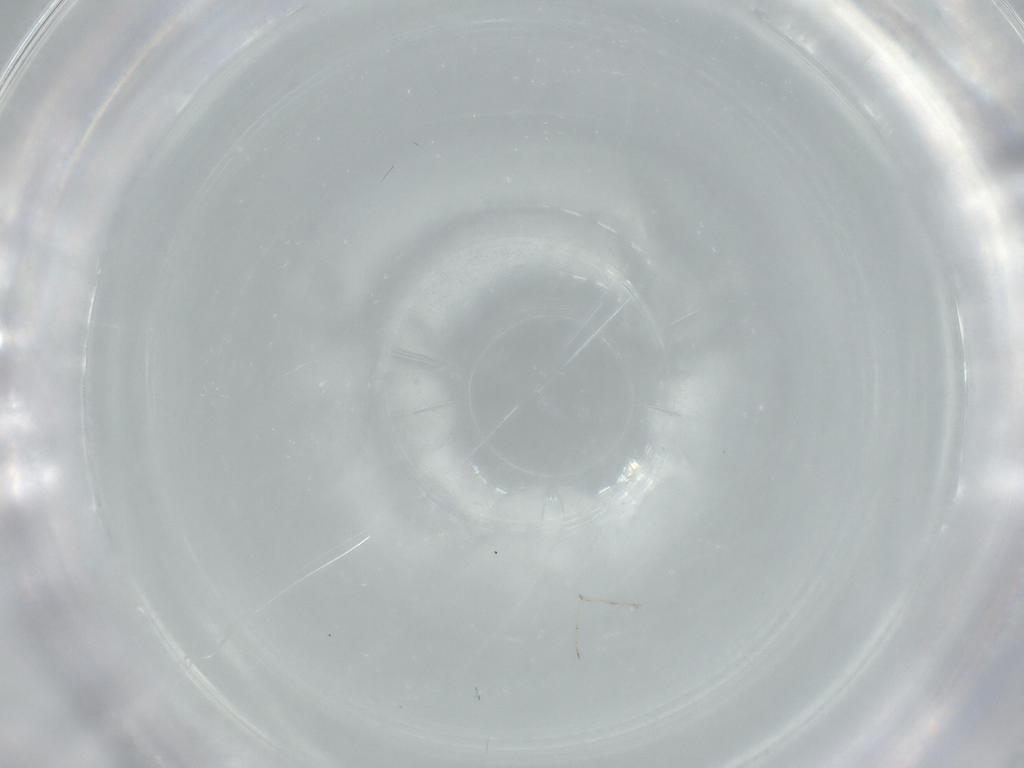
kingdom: Animalia
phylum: Arthropoda
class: Insecta
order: Diptera
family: Cecidomyiidae
